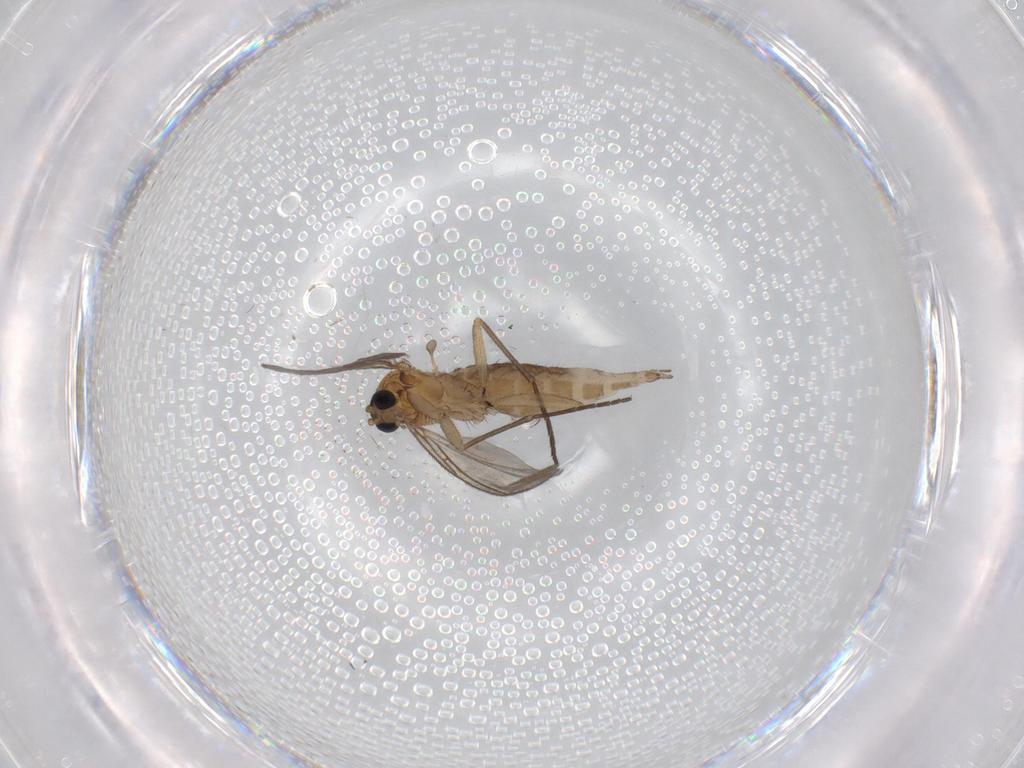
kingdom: Animalia
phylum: Arthropoda
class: Insecta
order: Diptera
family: Sciaridae
